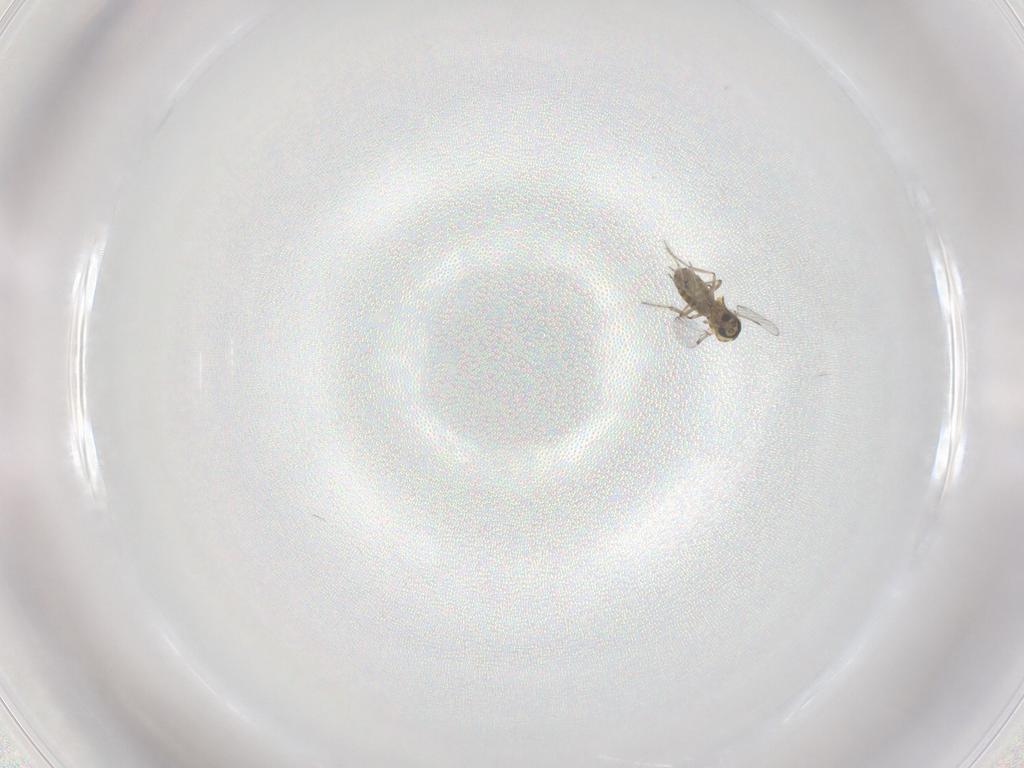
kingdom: Animalia
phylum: Arthropoda
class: Insecta
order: Diptera
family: Ceratopogonidae
